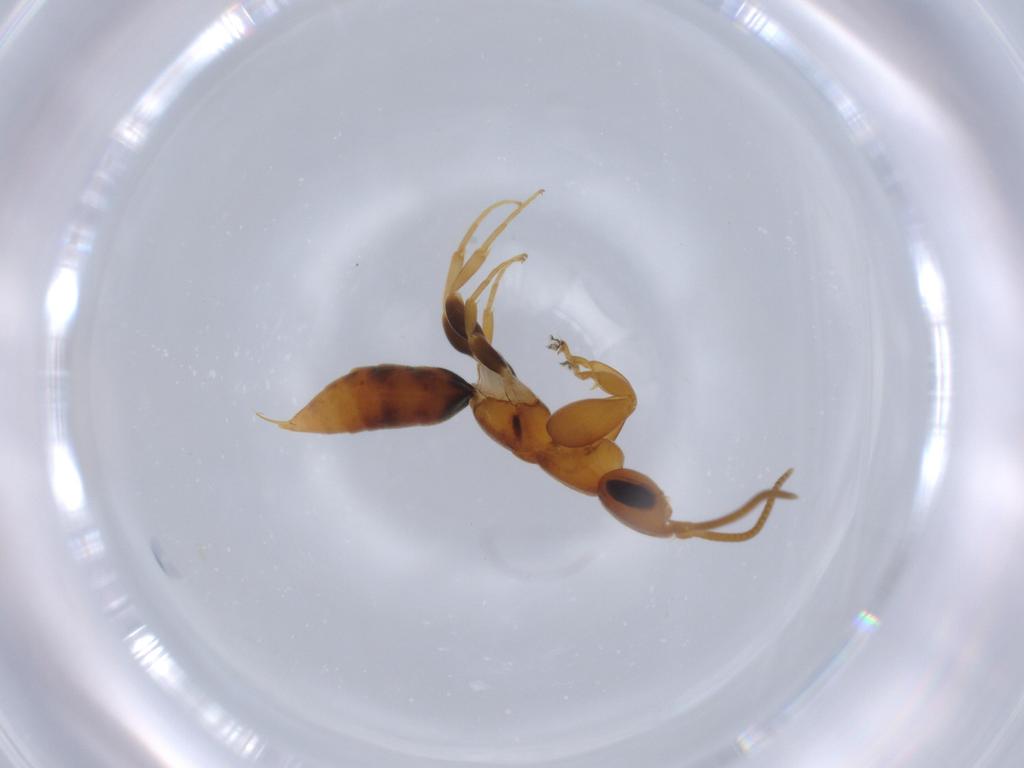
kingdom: Animalia
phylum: Arthropoda
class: Insecta
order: Hymenoptera
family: Sclerogibbidae
